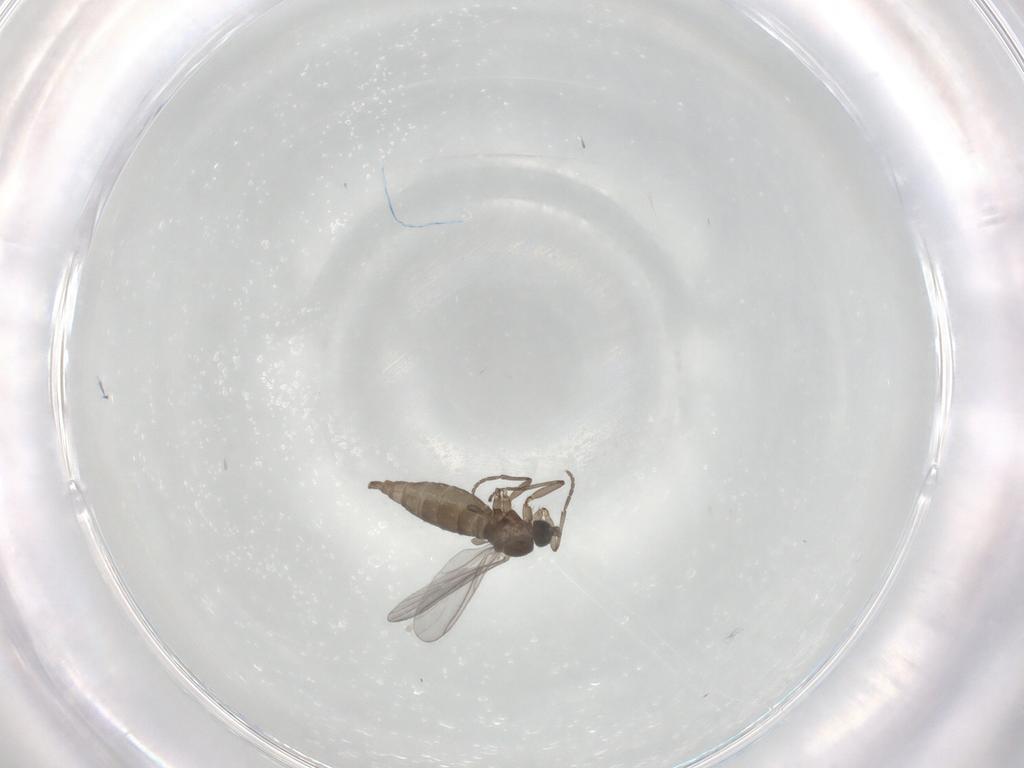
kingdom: Animalia
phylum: Arthropoda
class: Insecta
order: Diptera
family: Sciaridae
